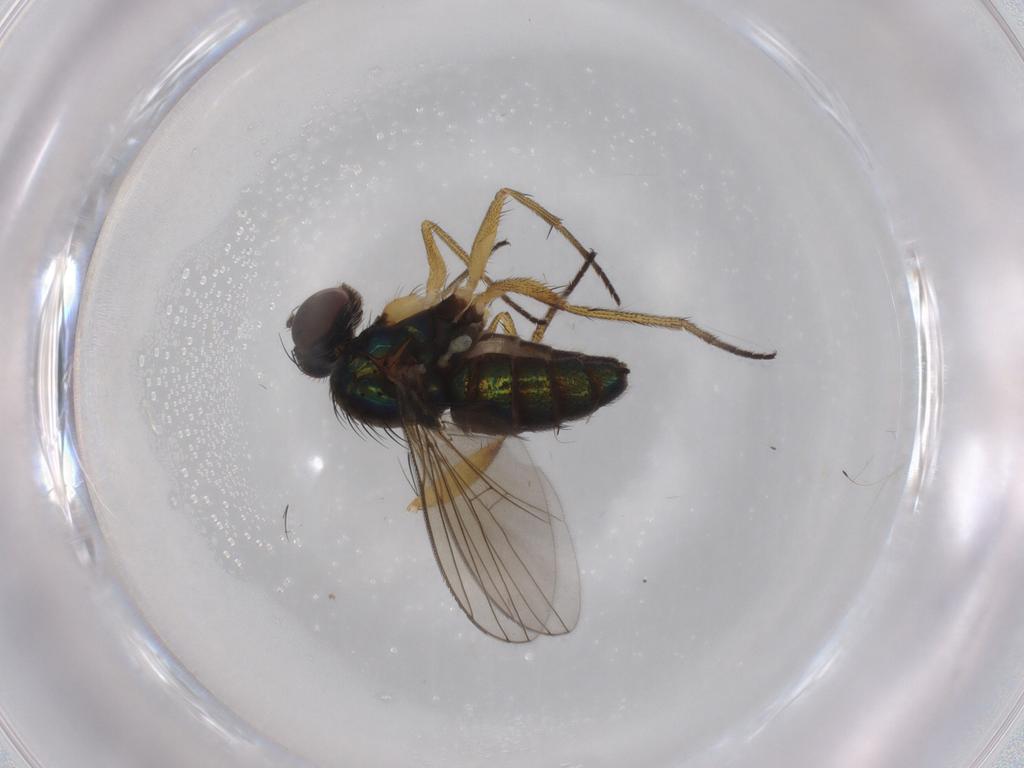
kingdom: Animalia
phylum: Arthropoda
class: Insecta
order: Diptera
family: Dolichopodidae
